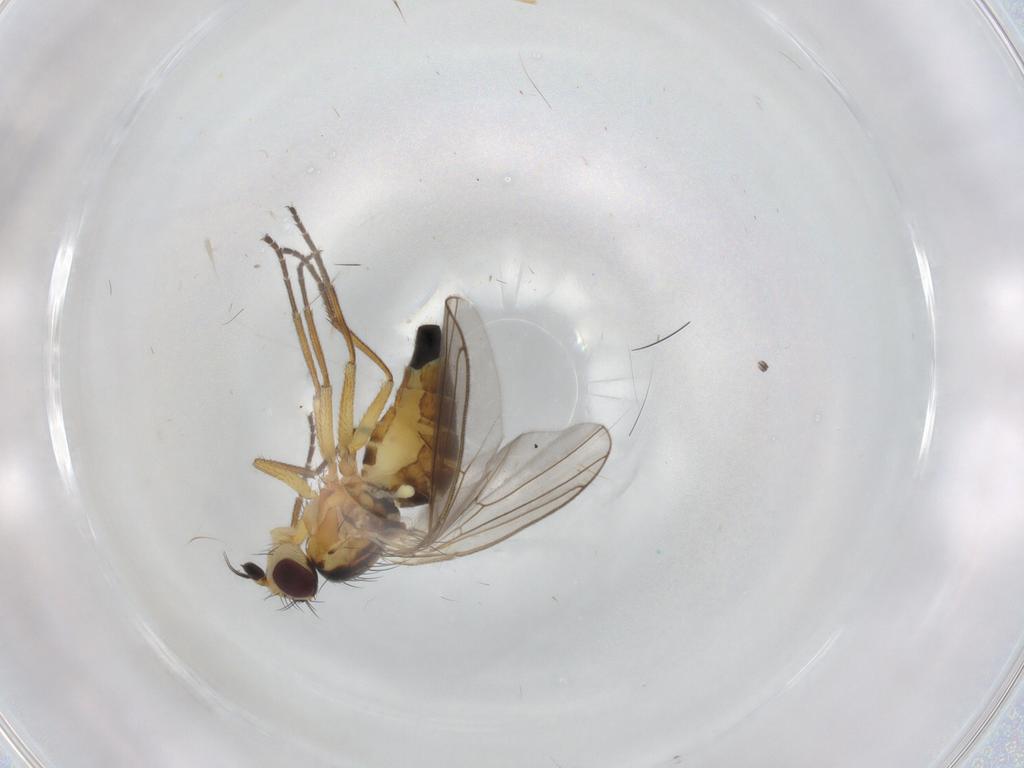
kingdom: Animalia
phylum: Arthropoda
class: Insecta
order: Diptera
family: Agromyzidae
